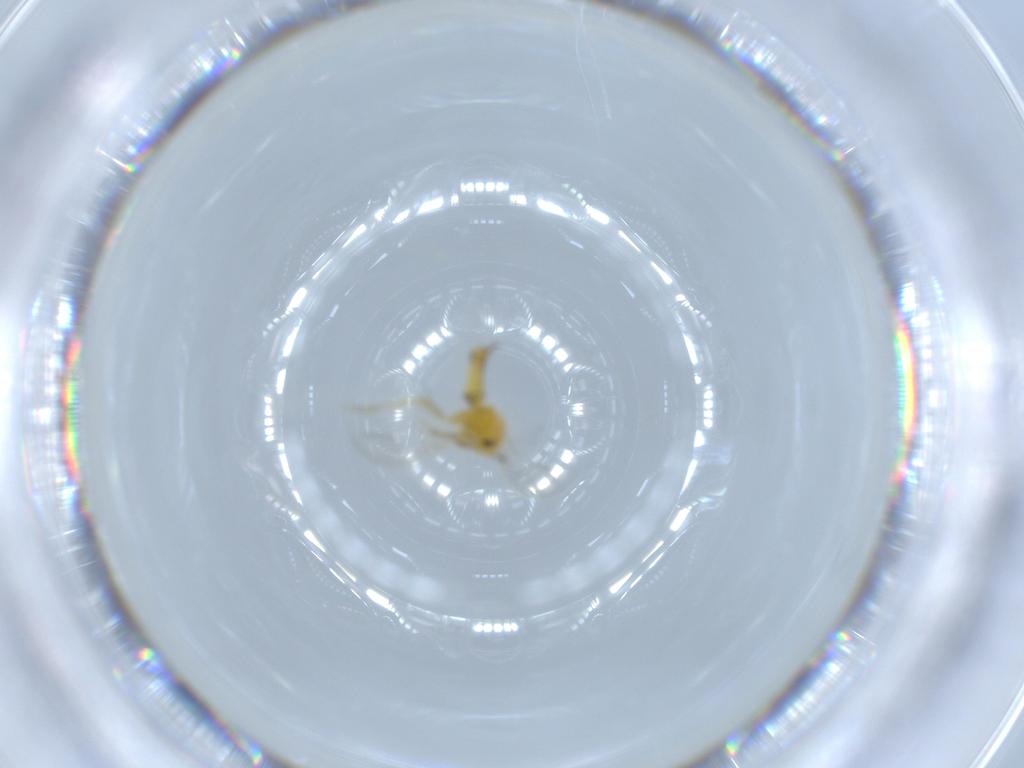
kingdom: Animalia
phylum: Arthropoda
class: Insecta
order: Hemiptera
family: Aleyrodidae
